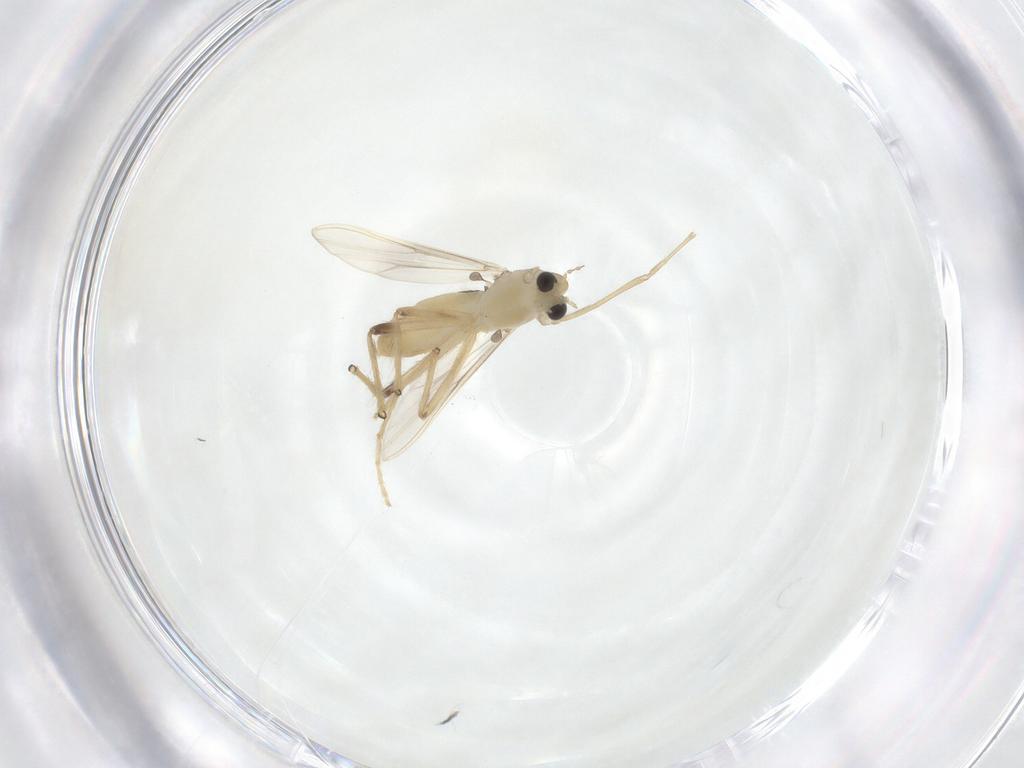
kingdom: Animalia
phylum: Arthropoda
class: Insecta
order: Diptera
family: Chironomidae
